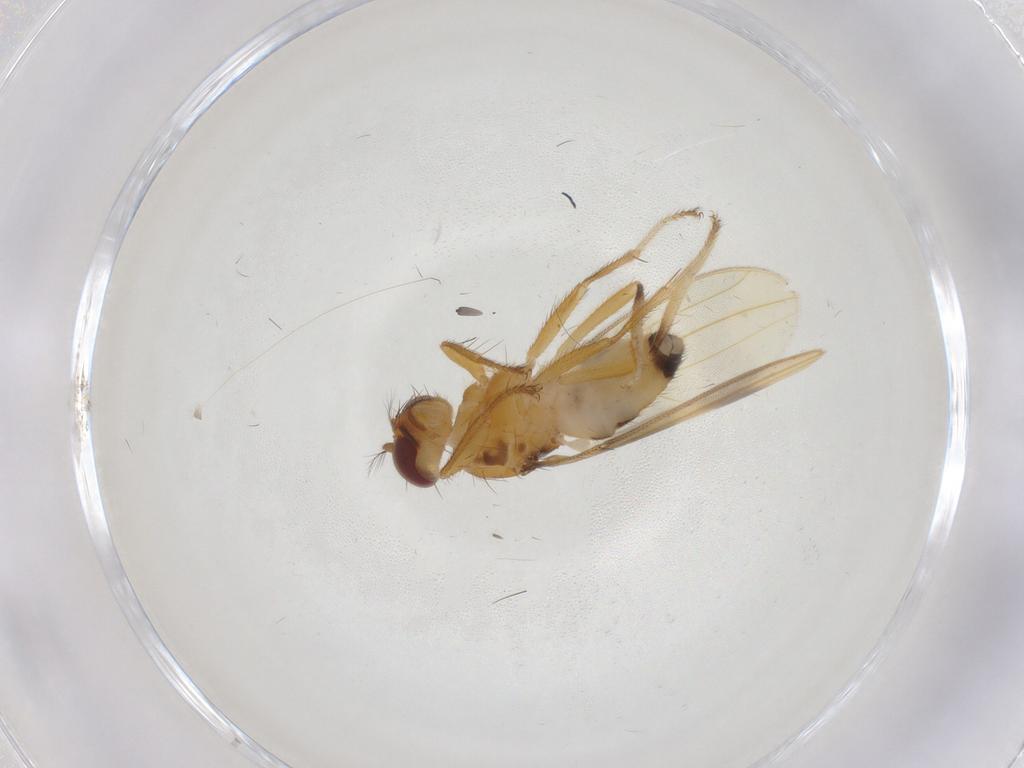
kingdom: Animalia
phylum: Arthropoda
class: Insecta
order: Diptera
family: Periscelididae
